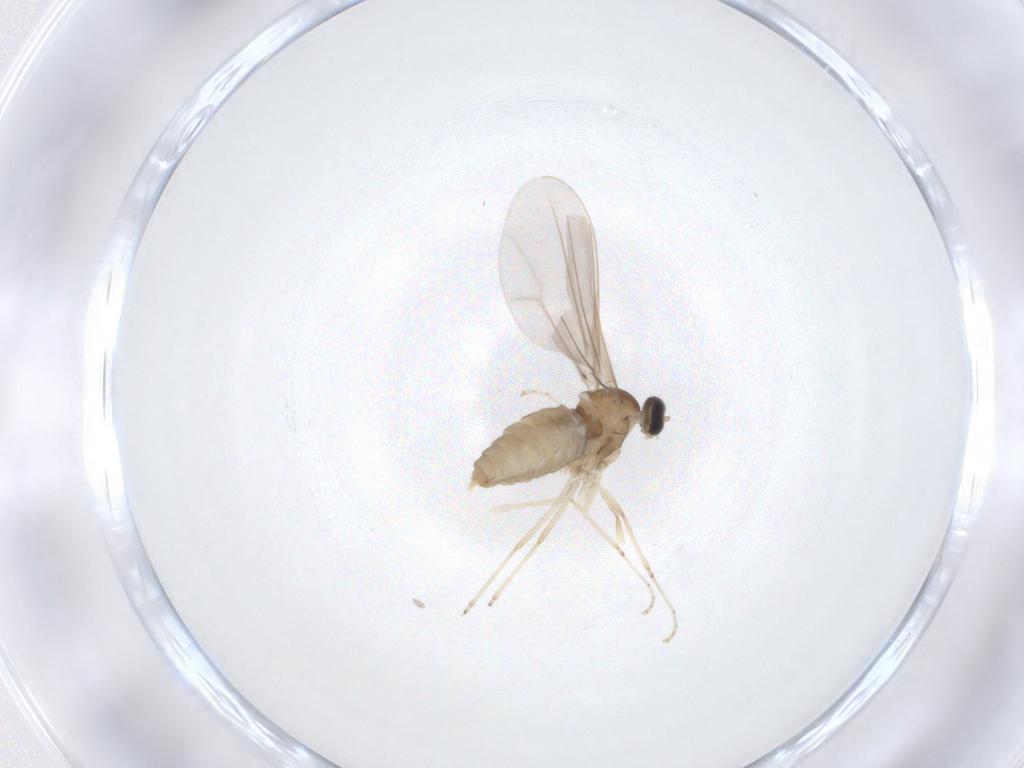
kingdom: Animalia
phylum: Arthropoda
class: Insecta
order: Diptera
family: Cecidomyiidae
